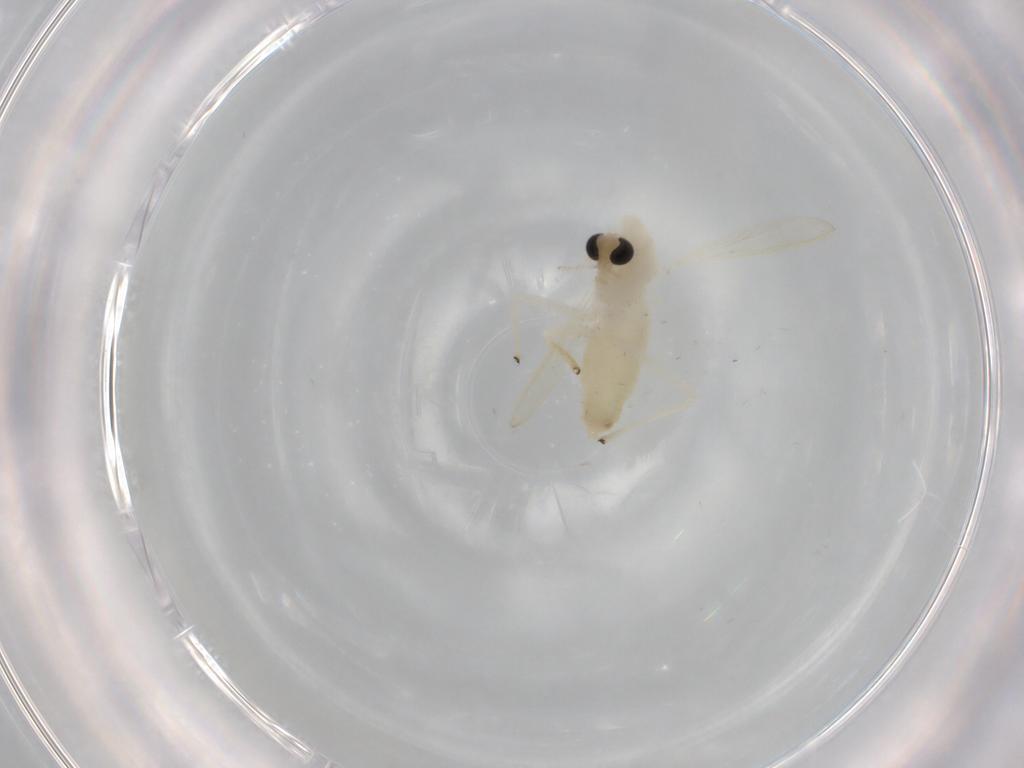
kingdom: Animalia
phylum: Arthropoda
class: Insecta
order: Diptera
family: Chironomidae
